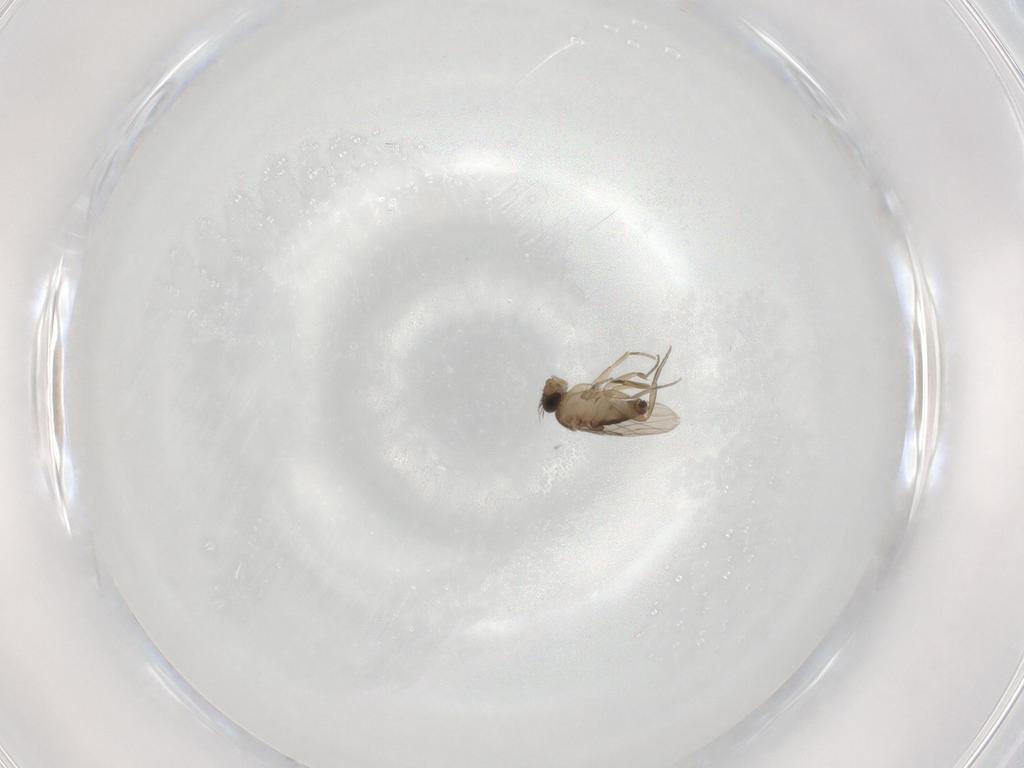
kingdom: Animalia
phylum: Arthropoda
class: Insecta
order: Diptera
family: Phoridae
